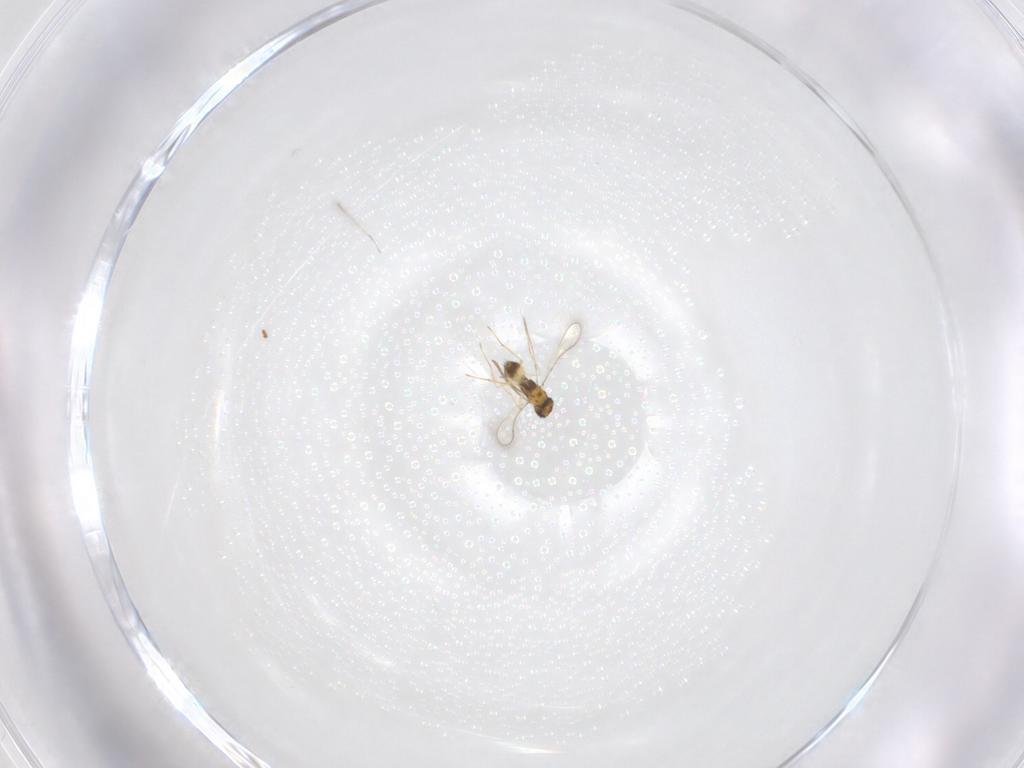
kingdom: Animalia
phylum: Arthropoda
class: Insecta
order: Hymenoptera
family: Diapriidae
